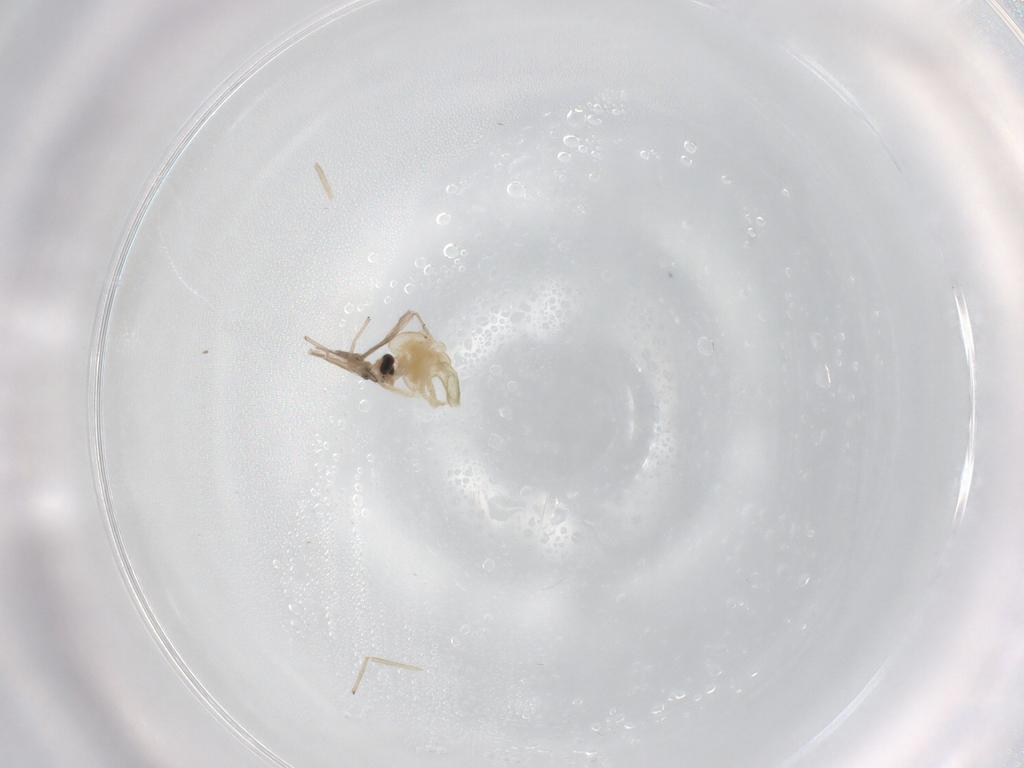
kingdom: Animalia
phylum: Arthropoda
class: Insecta
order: Diptera
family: Chironomidae
